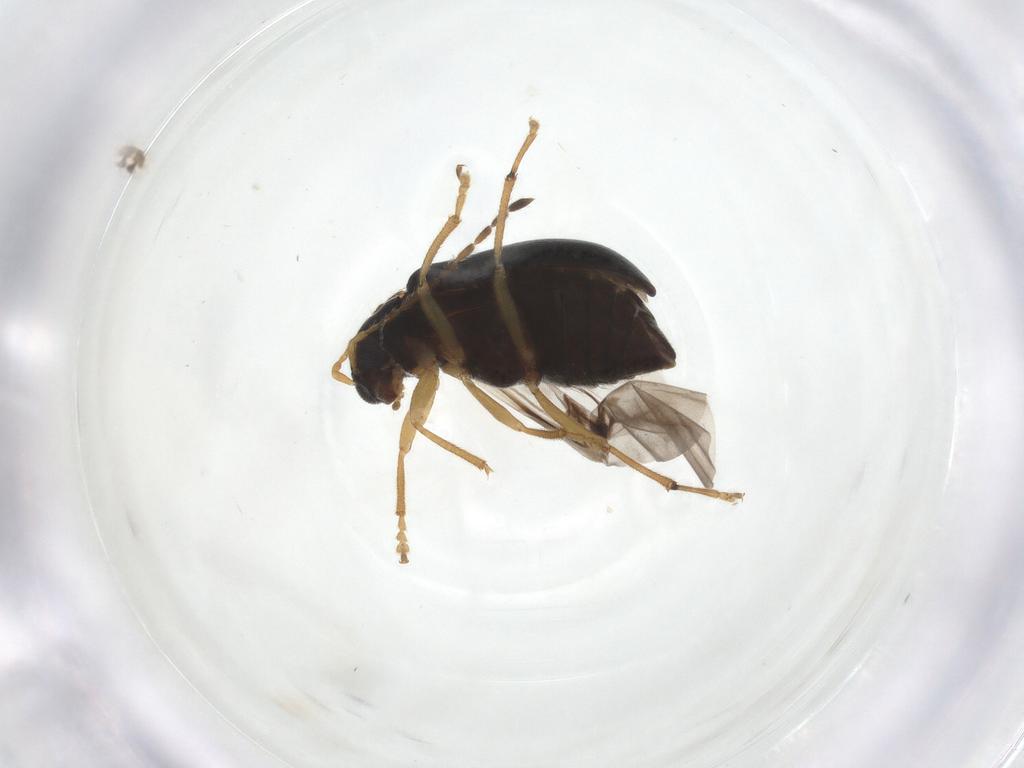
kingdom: Animalia
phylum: Arthropoda
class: Insecta
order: Coleoptera
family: Chrysomelidae
